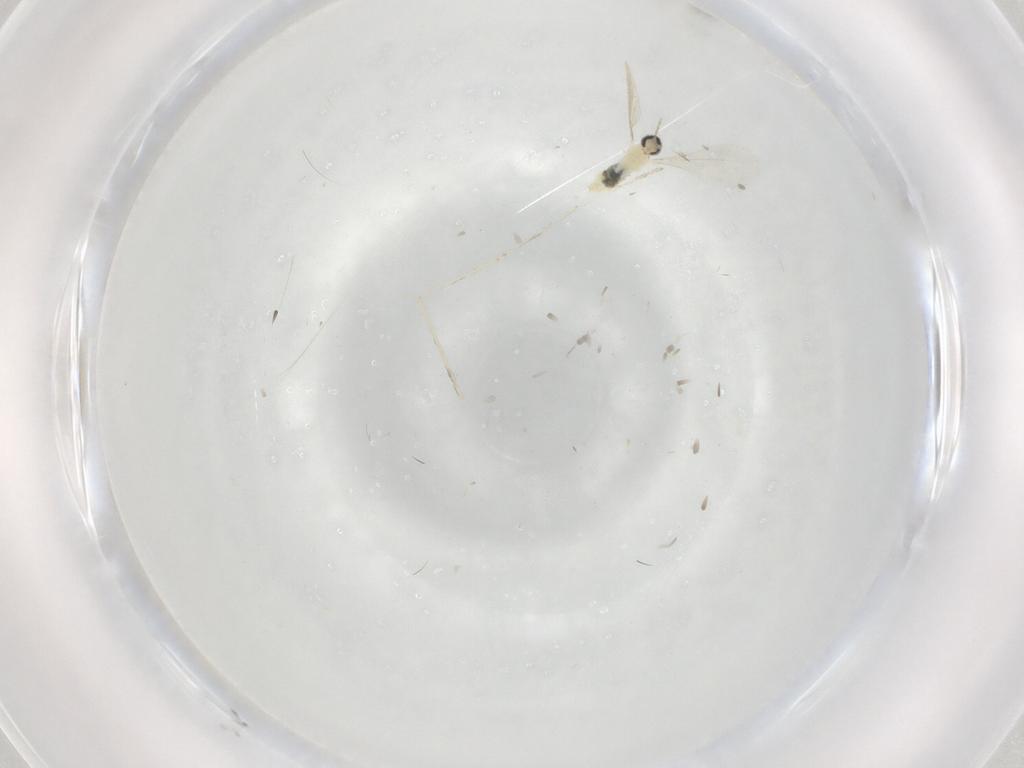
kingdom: Animalia
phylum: Arthropoda
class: Insecta
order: Diptera
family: Cecidomyiidae
